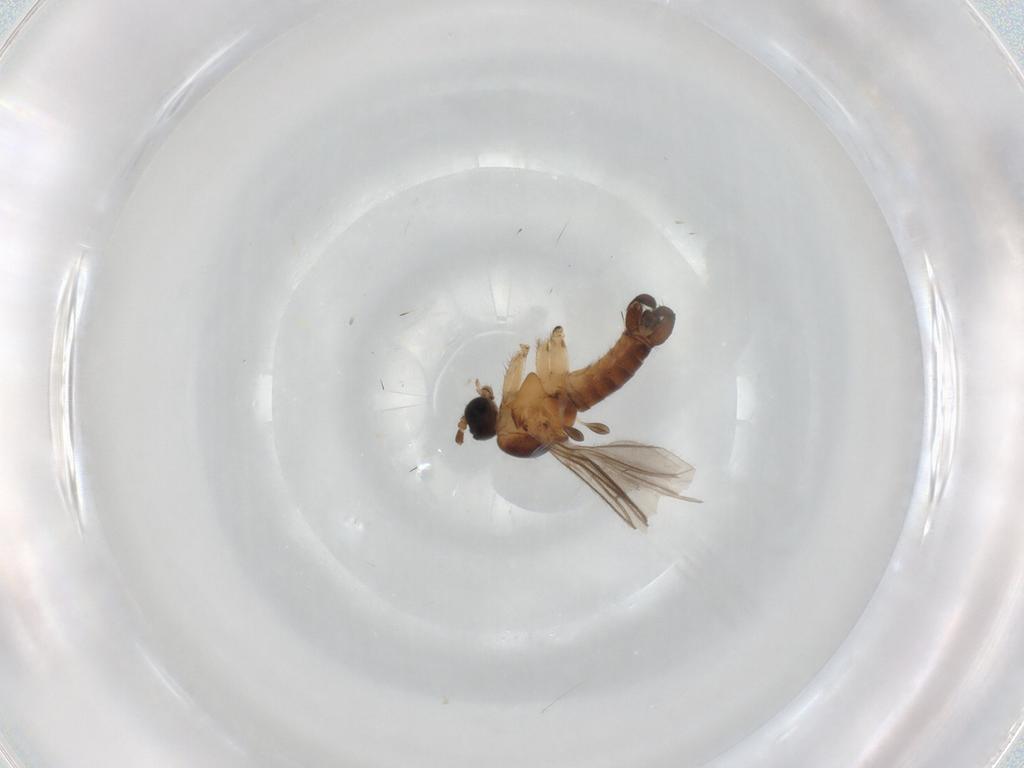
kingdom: Animalia
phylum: Arthropoda
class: Insecta
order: Diptera
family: Sciaridae
